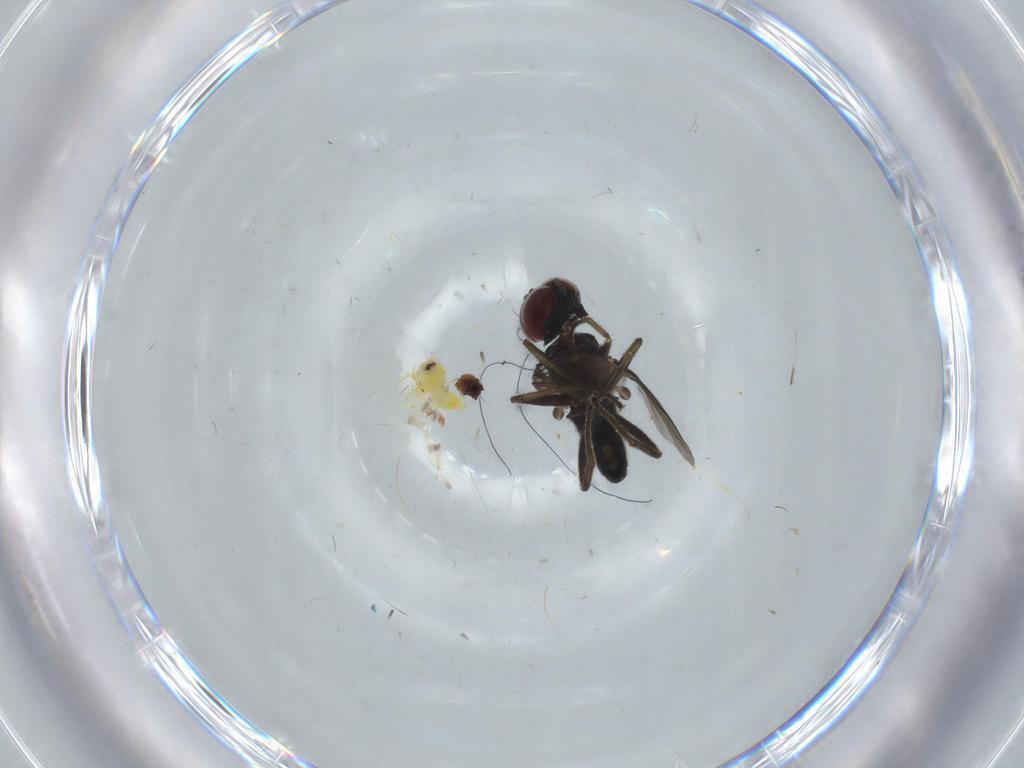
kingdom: Animalia
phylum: Arthropoda
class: Insecta
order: Diptera
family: Dolichopodidae
